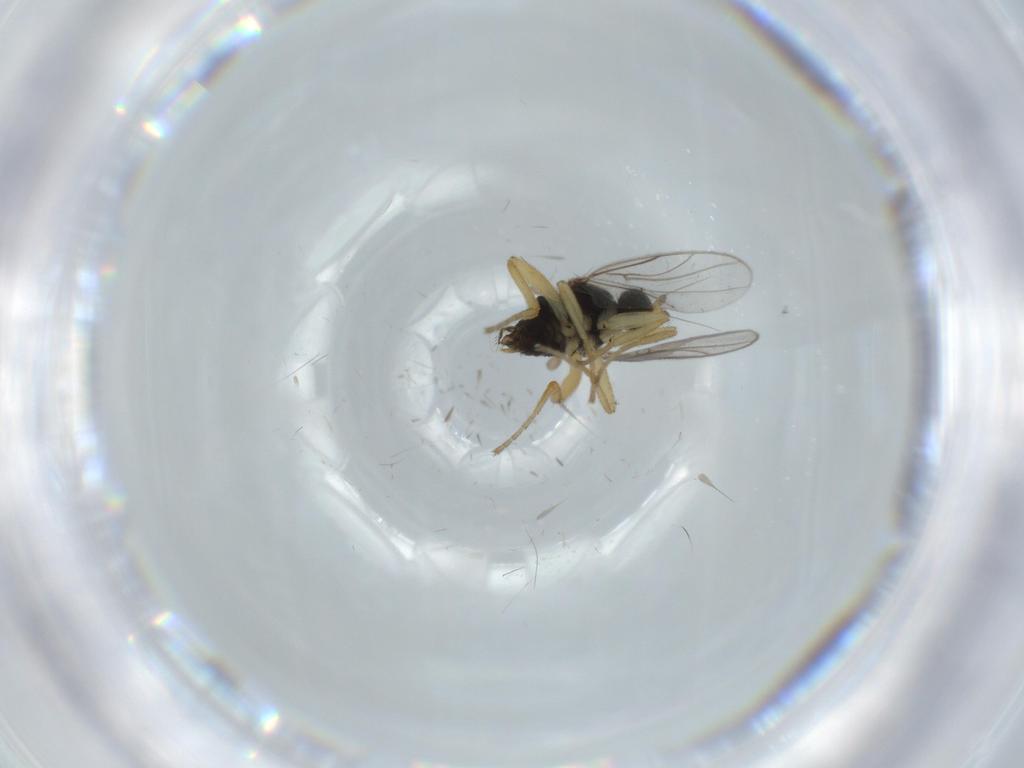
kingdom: Animalia
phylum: Arthropoda
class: Insecta
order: Diptera
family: Hybotidae
